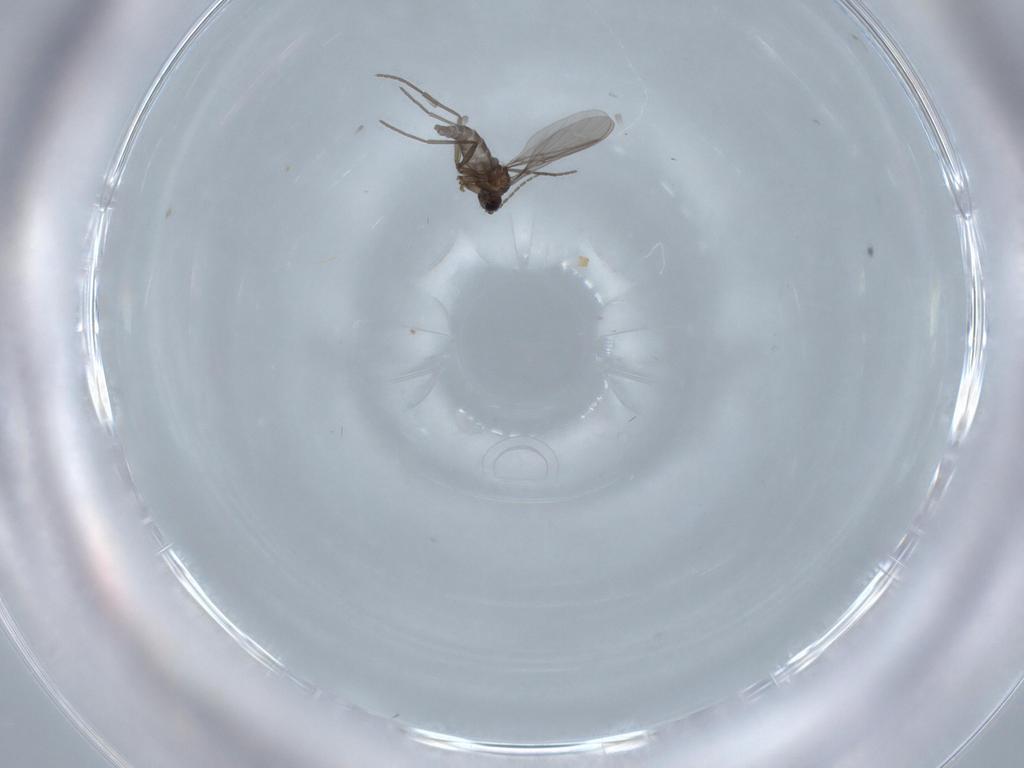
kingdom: Animalia
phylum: Arthropoda
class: Insecta
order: Diptera
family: Sciaridae
